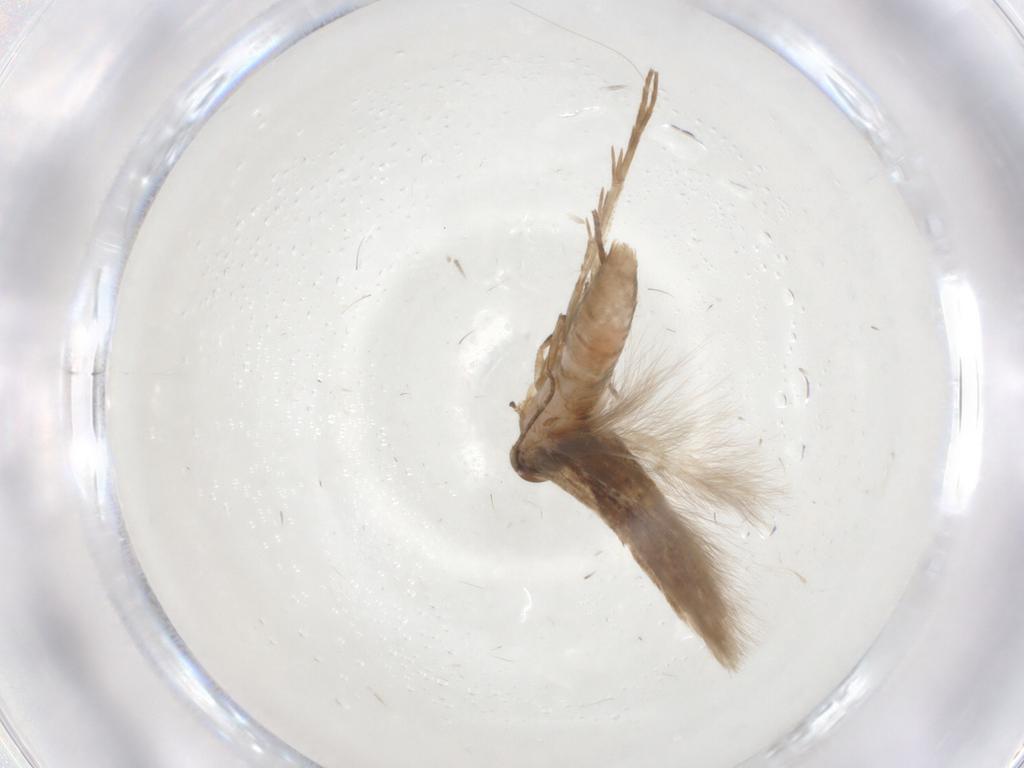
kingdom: Animalia
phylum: Arthropoda
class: Insecta
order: Lepidoptera
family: Cosmopterigidae
